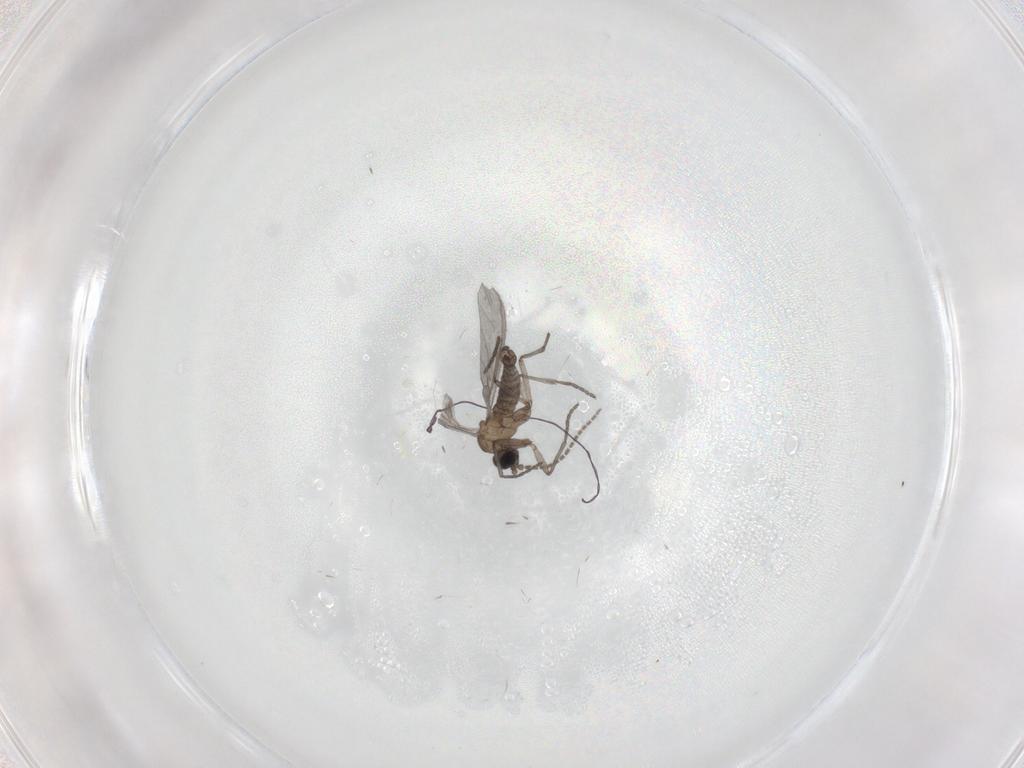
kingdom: Animalia
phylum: Arthropoda
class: Insecta
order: Diptera
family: Sciaridae
